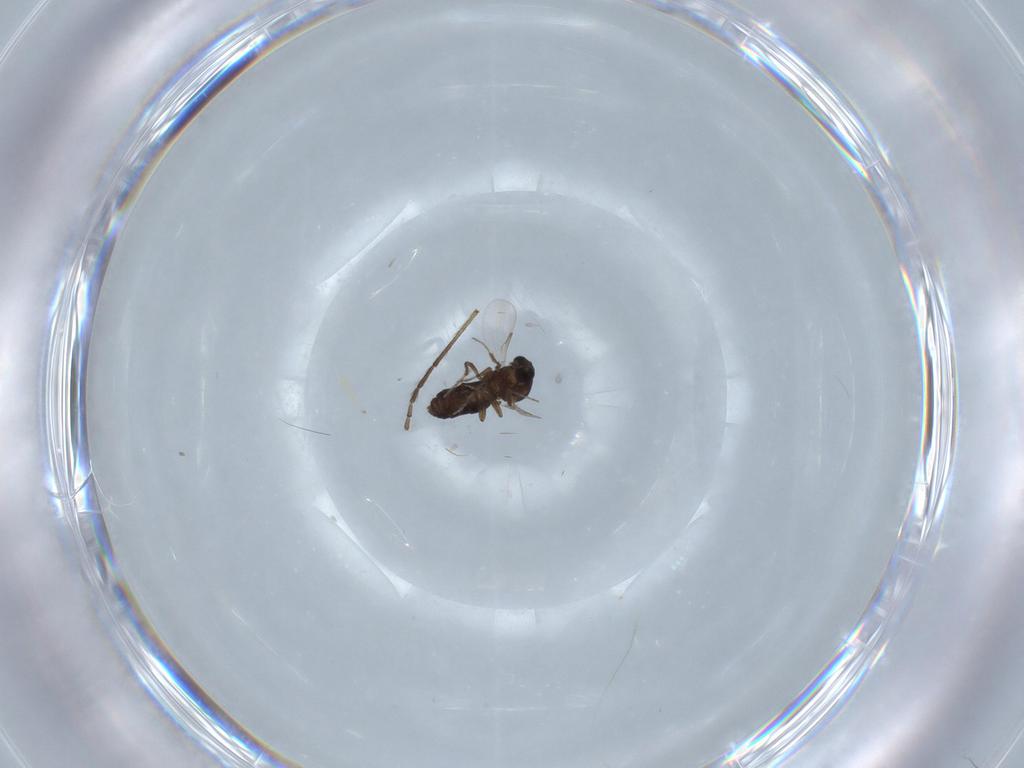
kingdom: Animalia
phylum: Arthropoda
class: Insecta
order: Diptera
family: Ceratopogonidae
